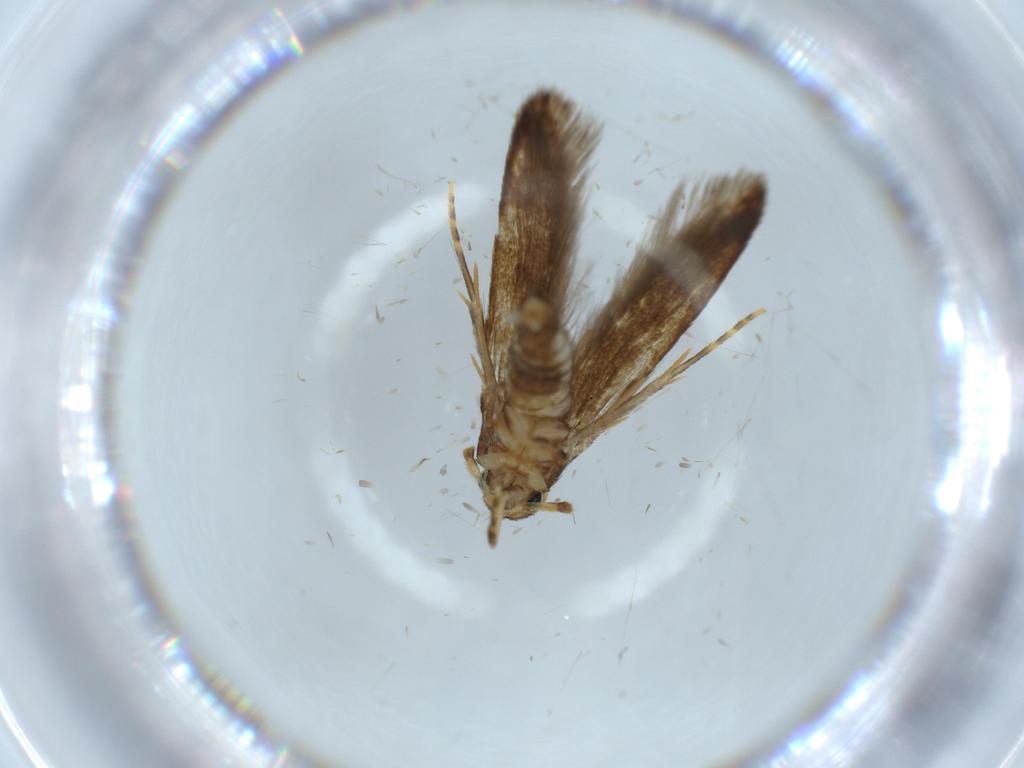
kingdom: Animalia
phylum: Arthropoda
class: Insecta
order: Lepidoptera
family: Tineidae
